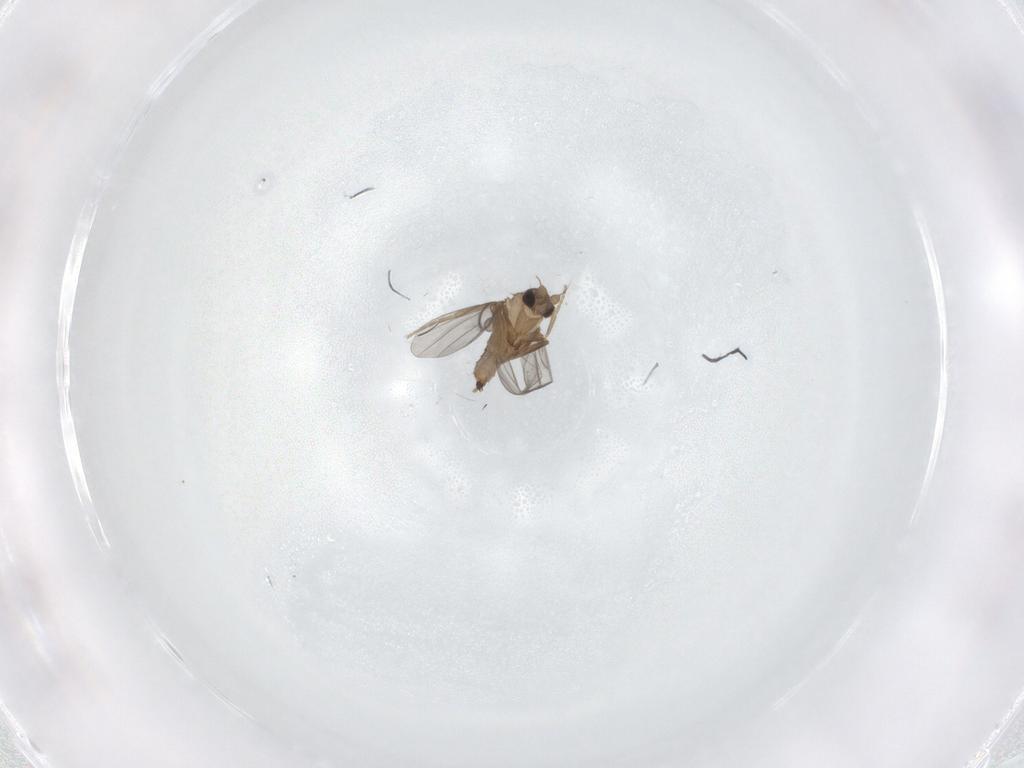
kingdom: Animalia
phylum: Arthropoda
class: Insecta
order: Diptera
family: Chironomidae
